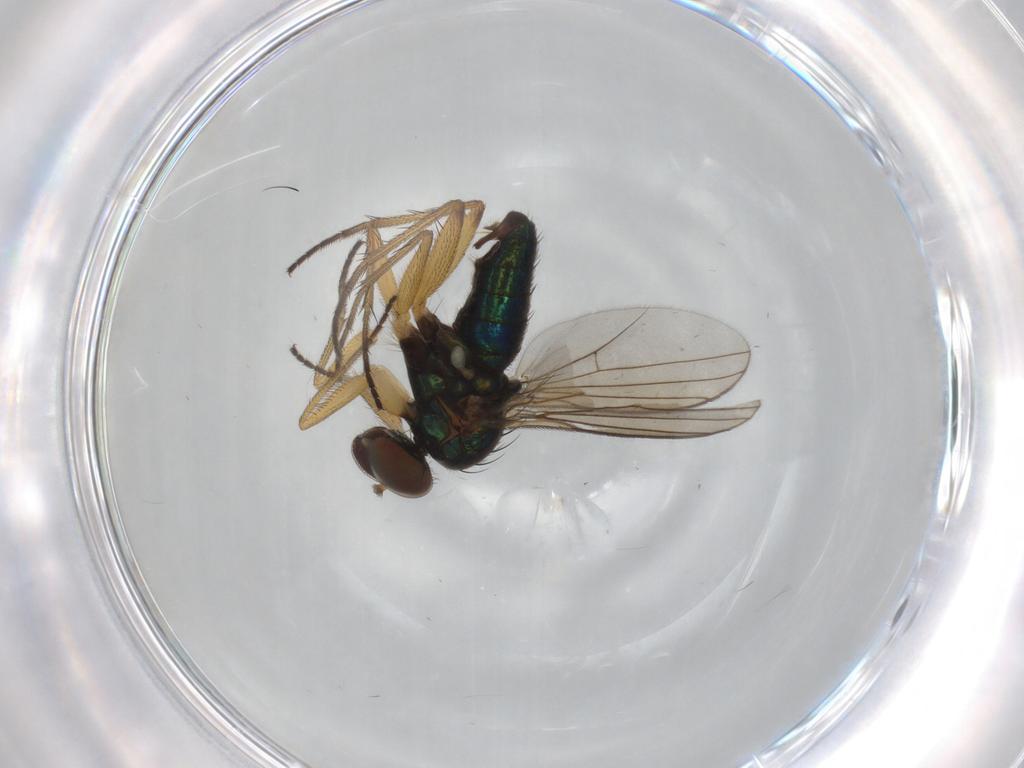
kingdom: Animalia
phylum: Arthropoda
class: Insecta
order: Diptera
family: Dolichopodidae
